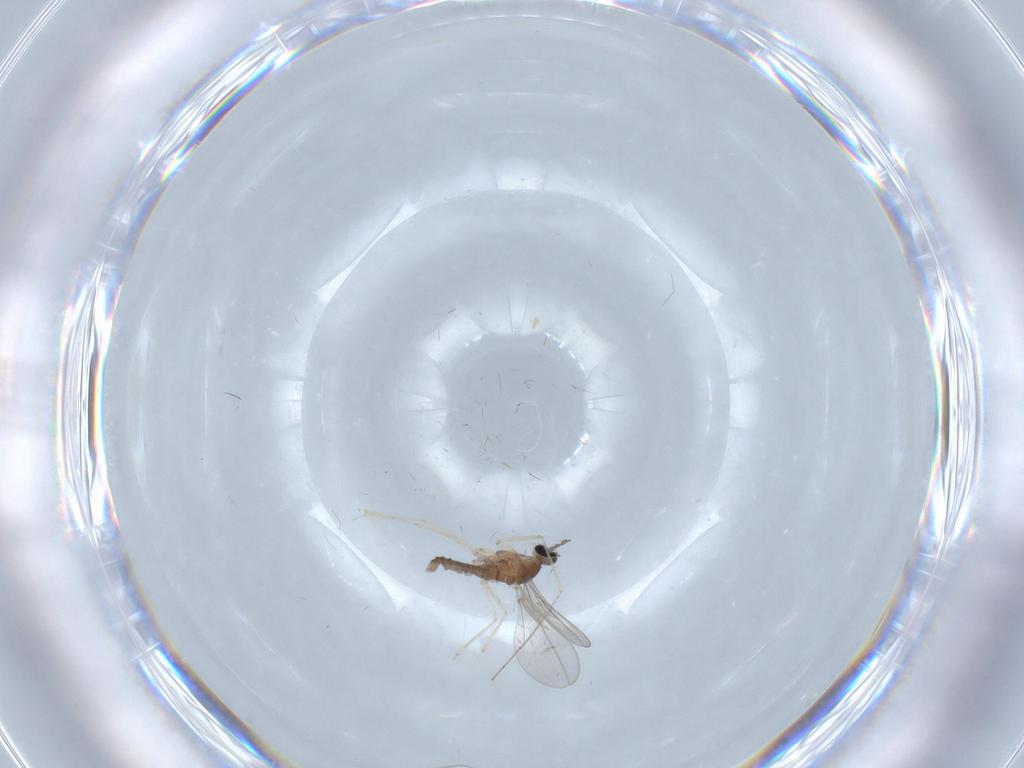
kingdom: Animalia
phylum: Arthropoda
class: Insecta
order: Diptera
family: Cecidomyiidae
